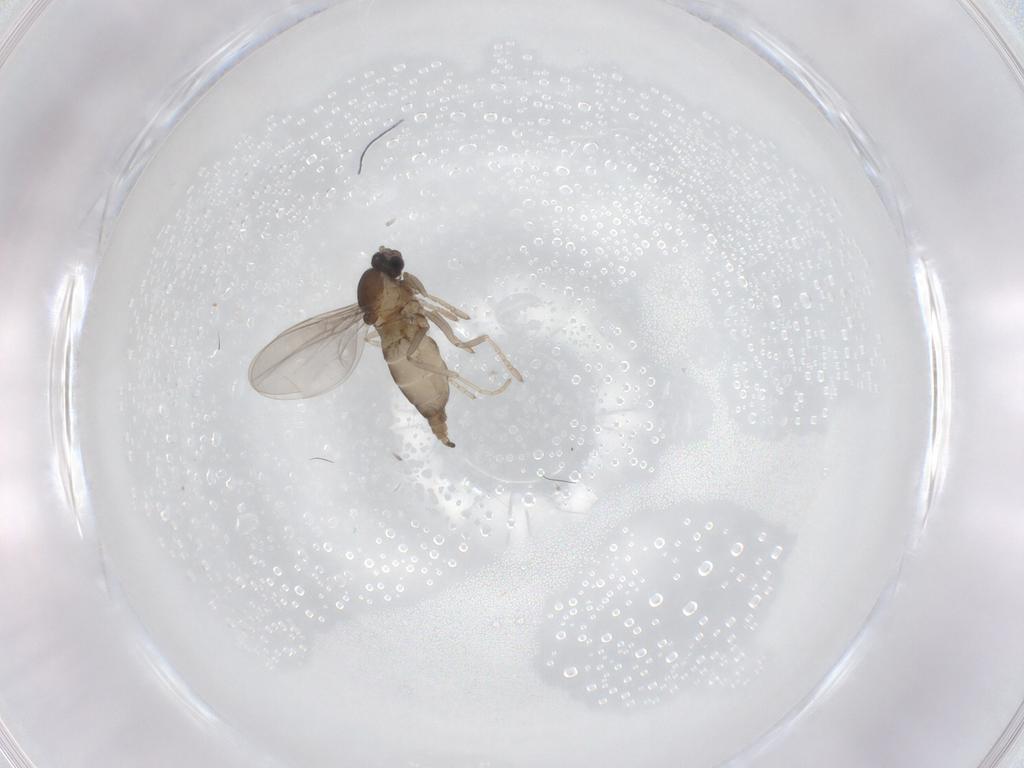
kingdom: Animalia
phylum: Arthropoda
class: Insecta
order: Diptera
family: Cecidomyiidae
